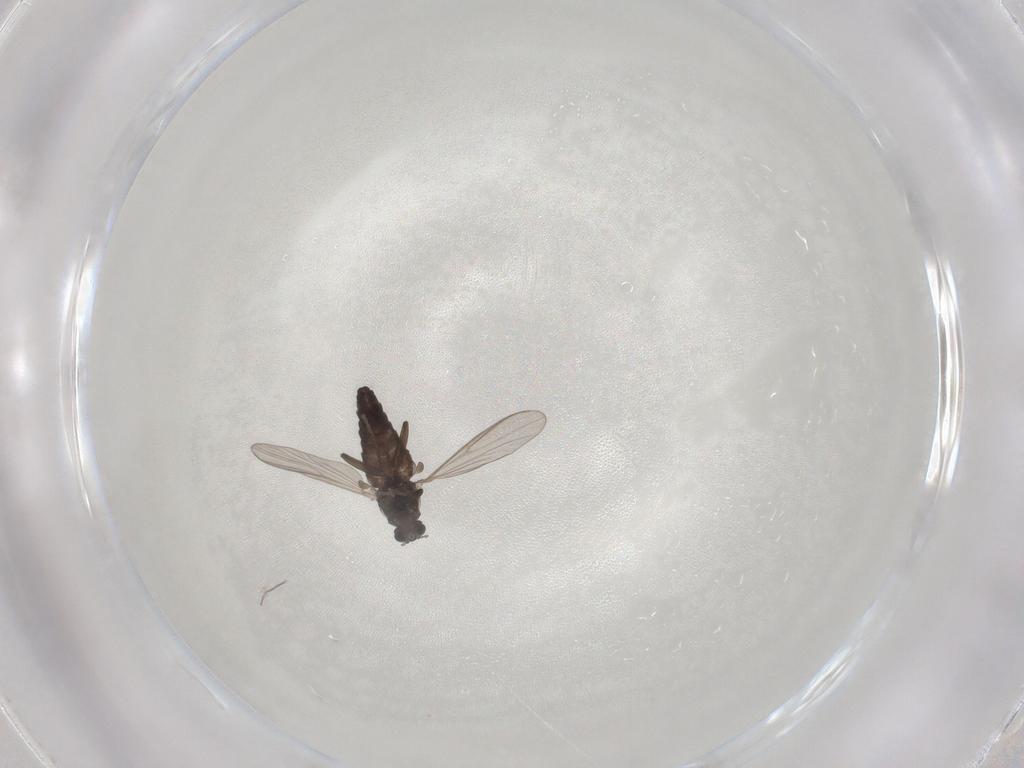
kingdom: Animalia
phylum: Arthropoda
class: Insecta
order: Diptera
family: Chironomidae
